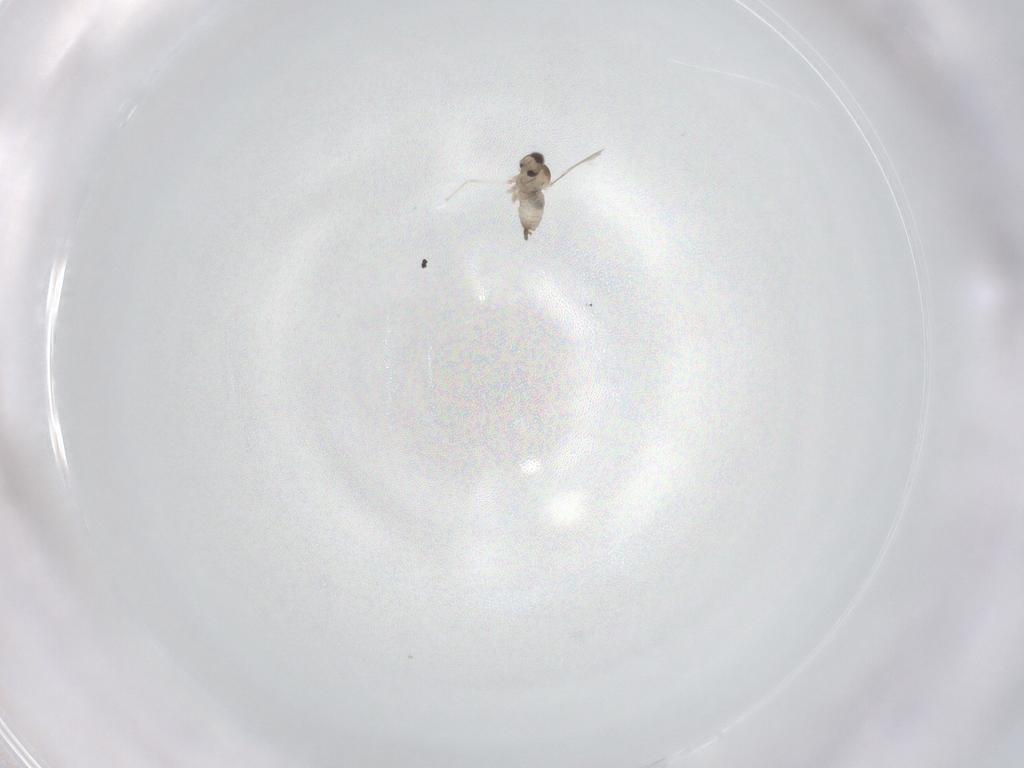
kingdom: Animalia
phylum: Arthropoda
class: Insecta
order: Diptera
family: Cecidomyiidae
